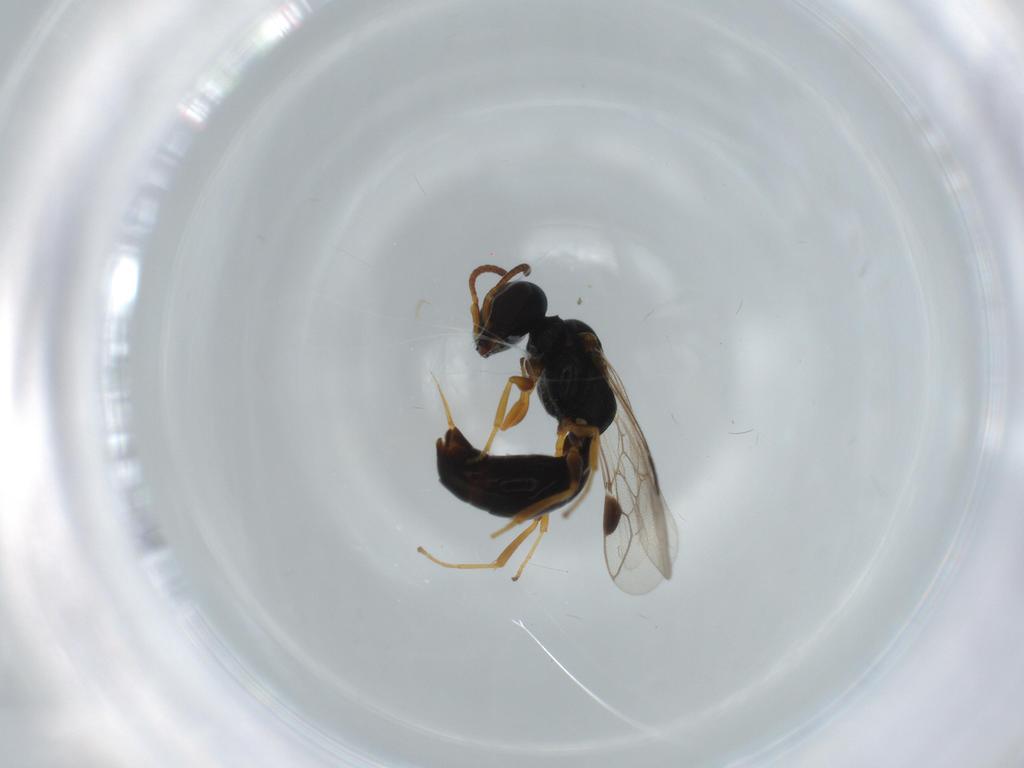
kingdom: Animalia
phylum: Arthropoda
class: Insecta
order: Hymenoptera
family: Crabronidae
